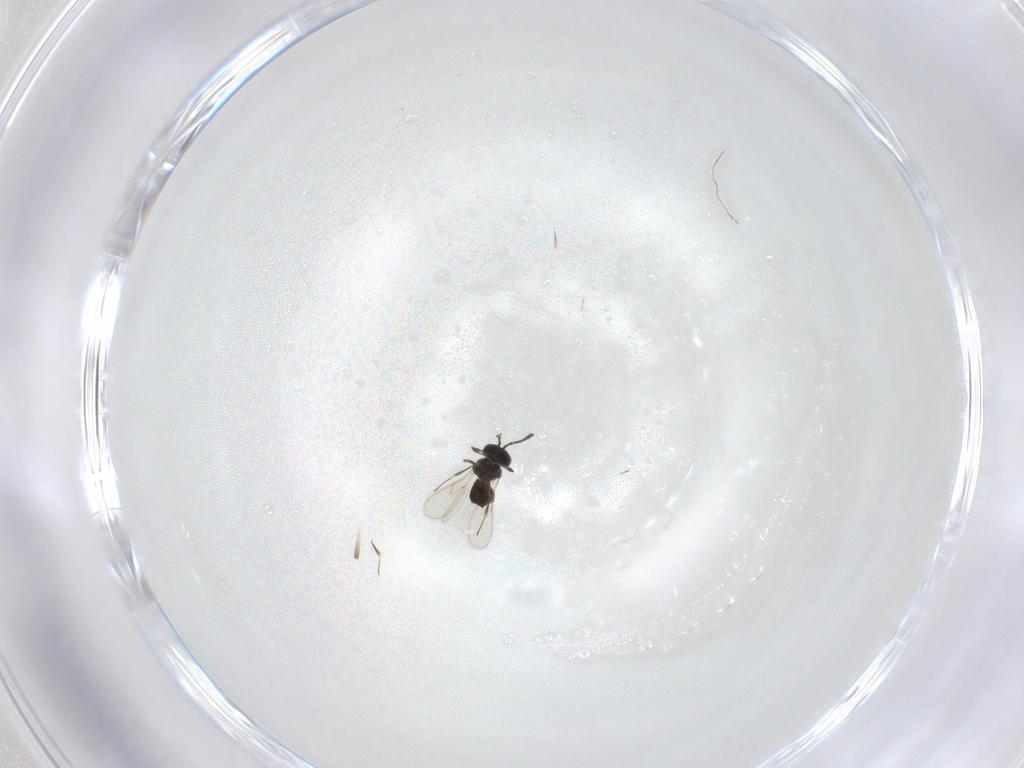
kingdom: Animalia
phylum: Arthropoda
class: Insecta
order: Hymenoptera
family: Scelionidae
